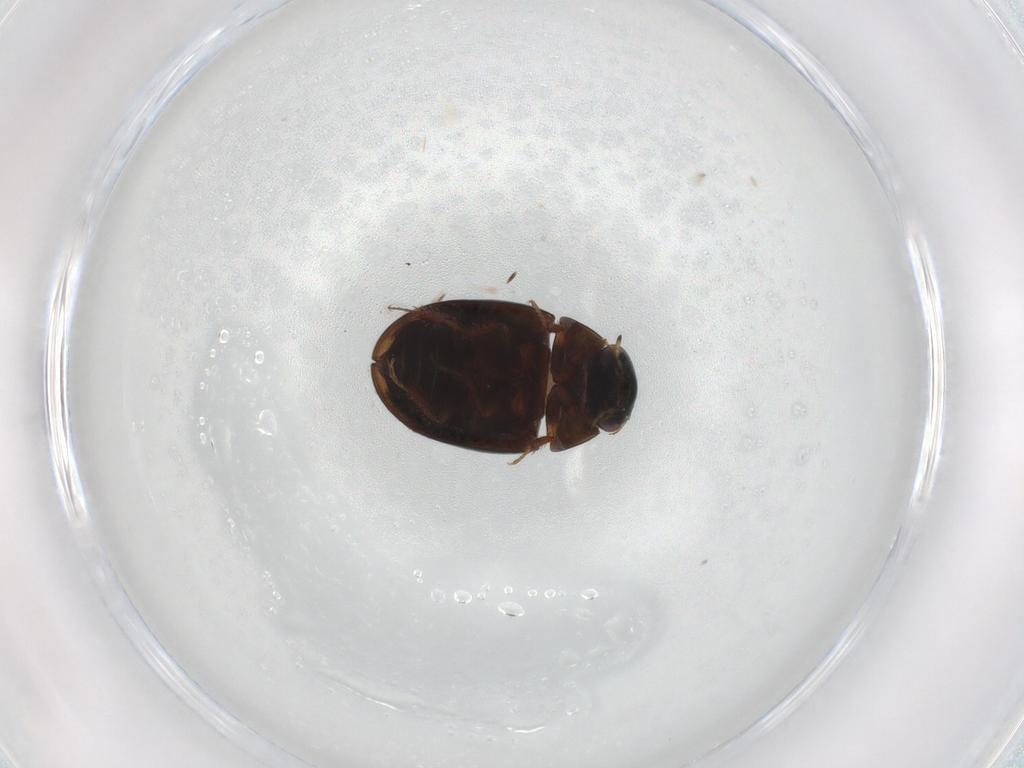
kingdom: Animalia
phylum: Arthropoda
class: Insecta
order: Coleoptera
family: Hydrophilidae
